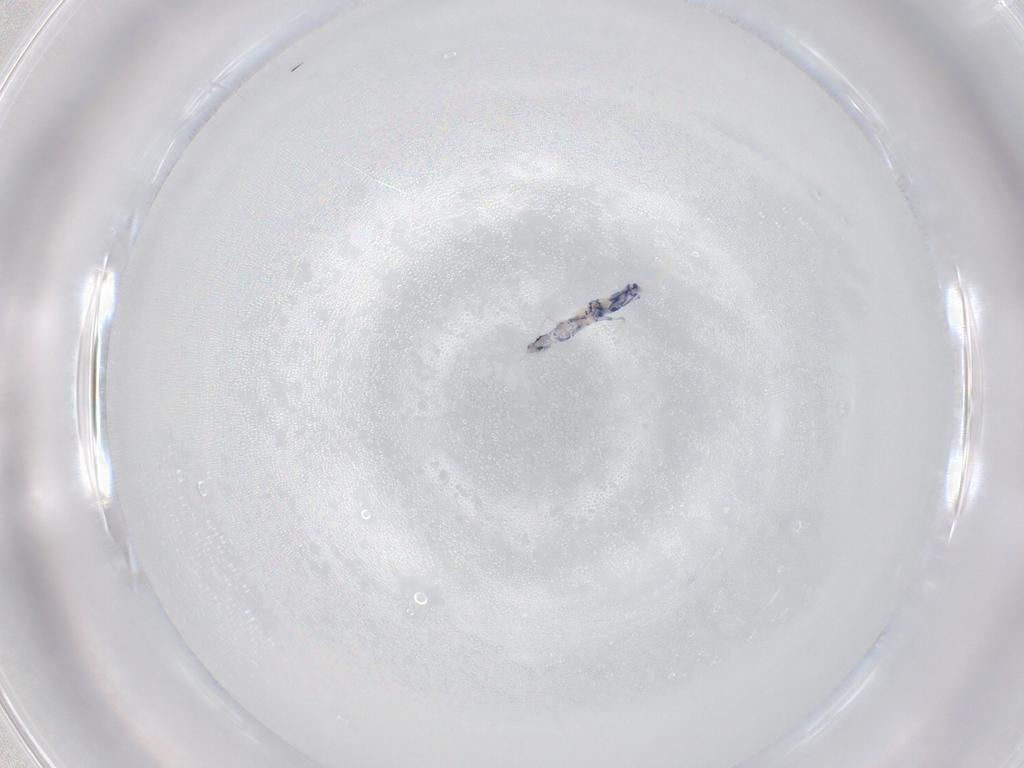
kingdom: Animalia
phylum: Arthropoda
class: Collembola
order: Entomobryomorpha
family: Entomobryidae
